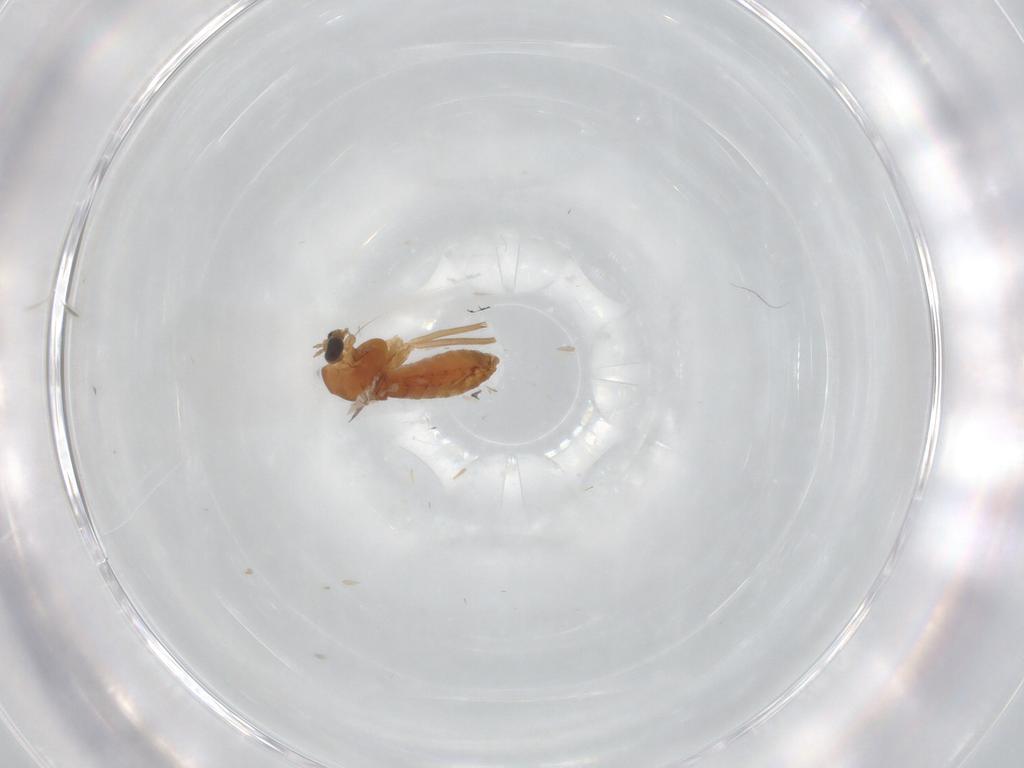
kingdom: Animalia
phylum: Arthropoda
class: Insecta
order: Diptera
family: Chironomidae
